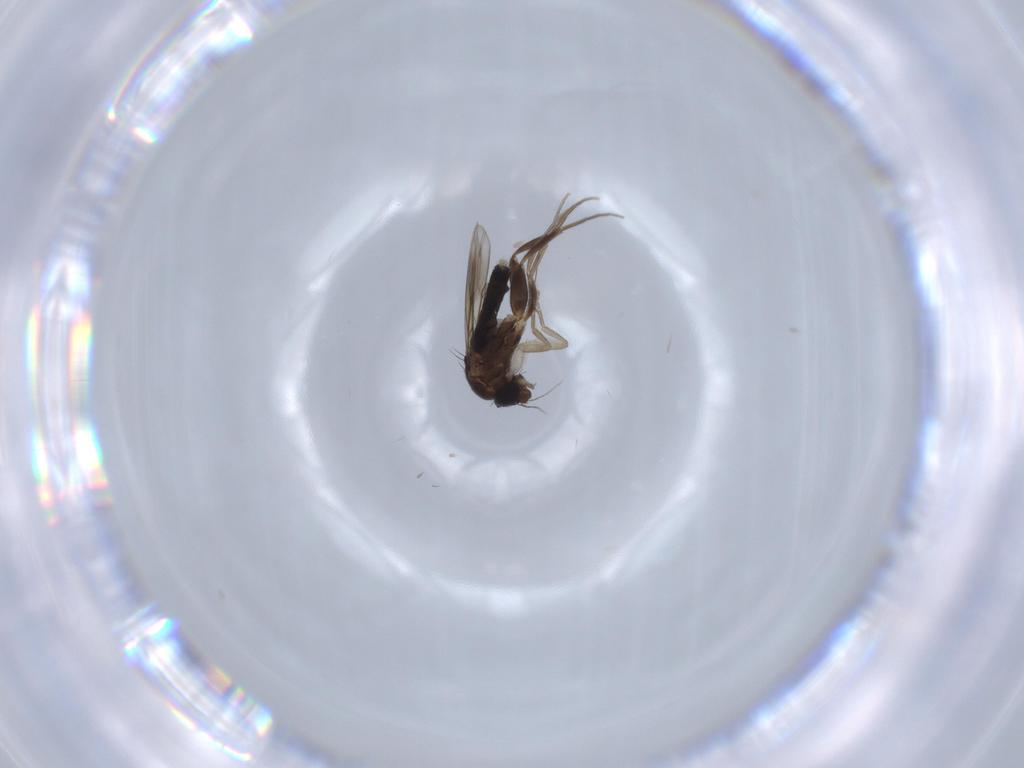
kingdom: Animalia
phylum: Arthropoda
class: Insecta
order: Diptera
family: Phoridae
